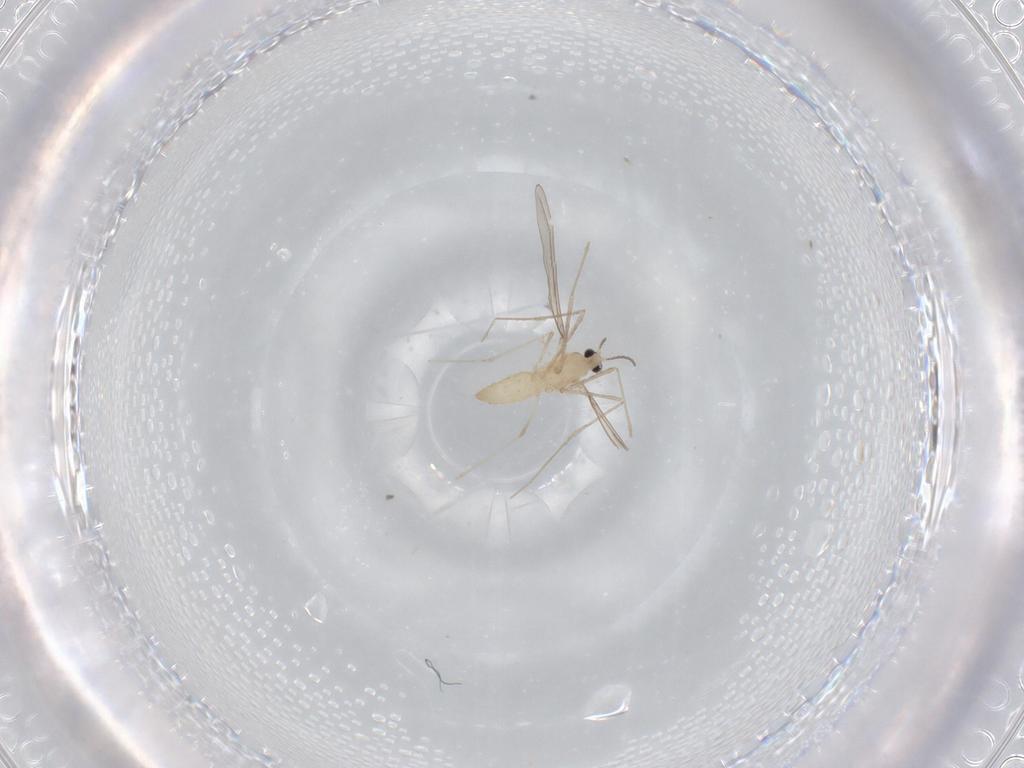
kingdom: Animalia
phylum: Arthropoda
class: Insecta
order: Diptera
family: Cecidomyiidae
